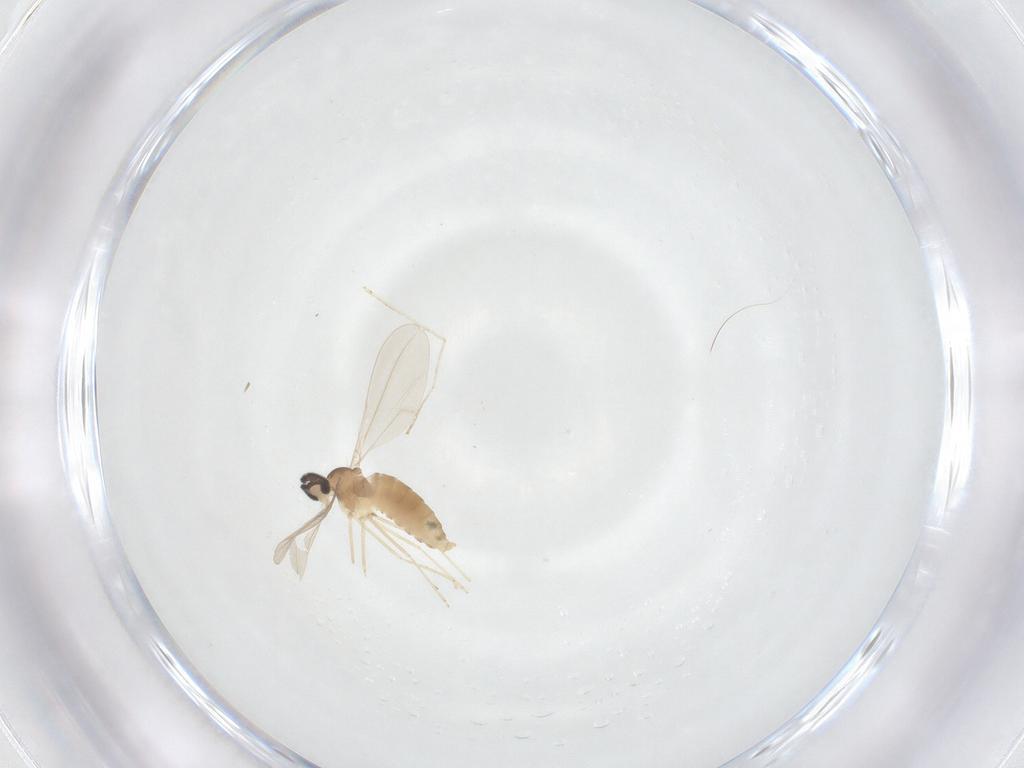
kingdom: Animalia
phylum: Arthropoda
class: Insecta
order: Diptera
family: Cecidomyiidae
